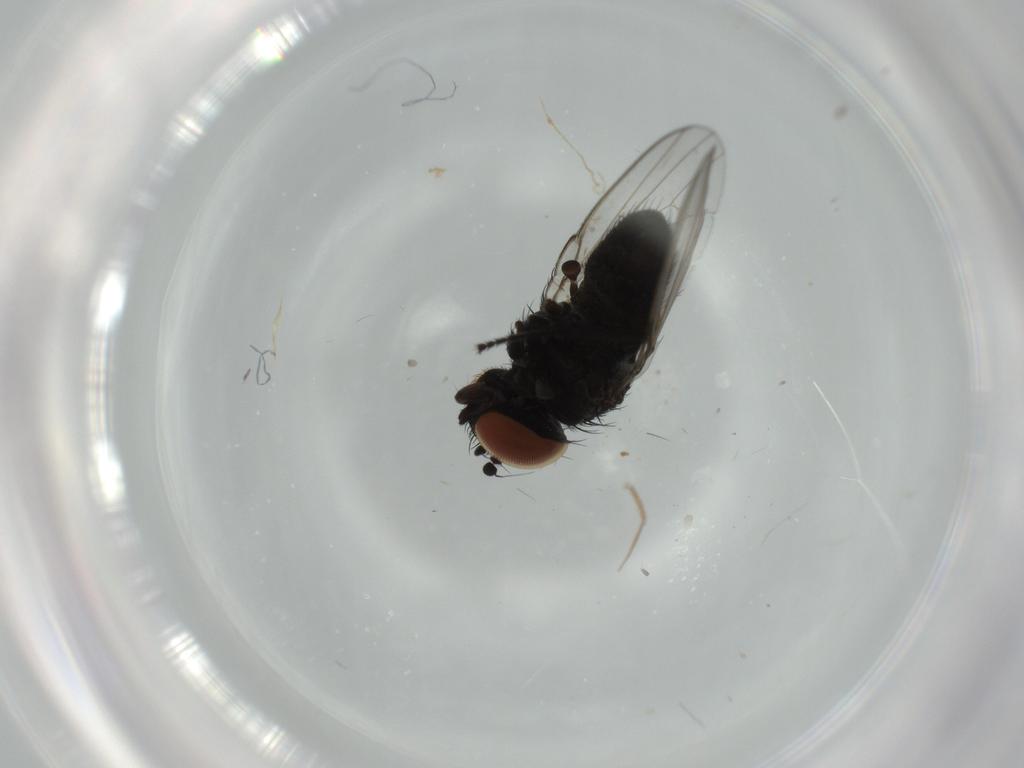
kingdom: Animalia
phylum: Arthropoda
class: Insecta
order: Diptera
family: Milichiidae
